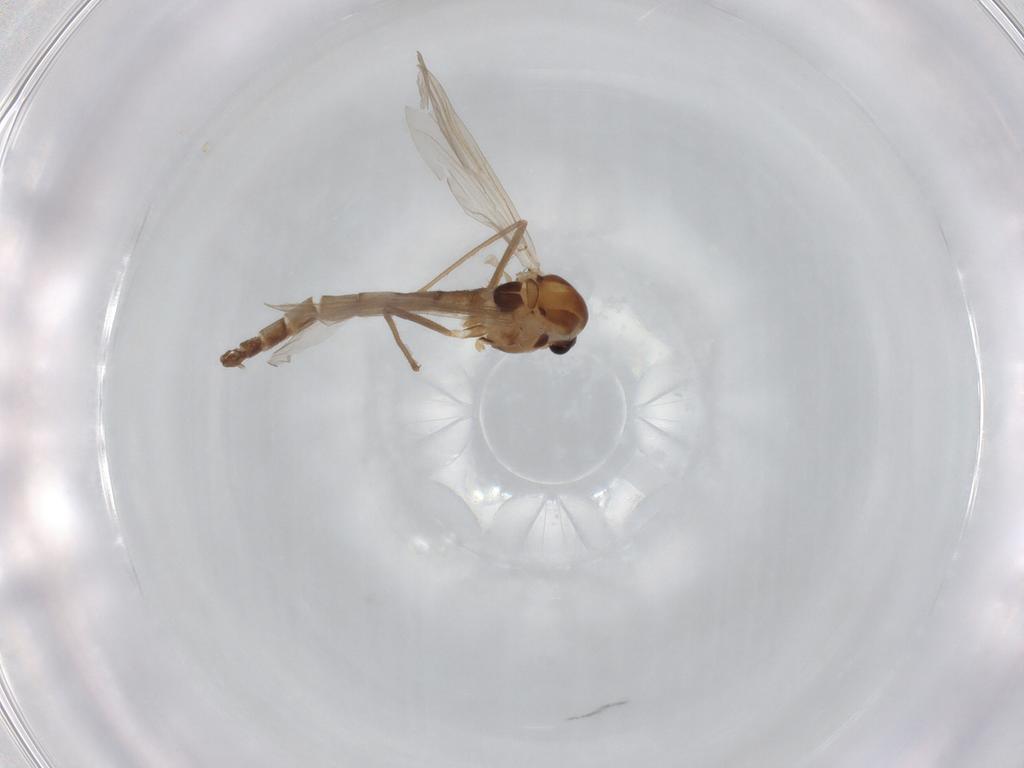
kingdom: Animalia
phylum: Arthropoda
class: Insecta
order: Diptera
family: Chironomidae
